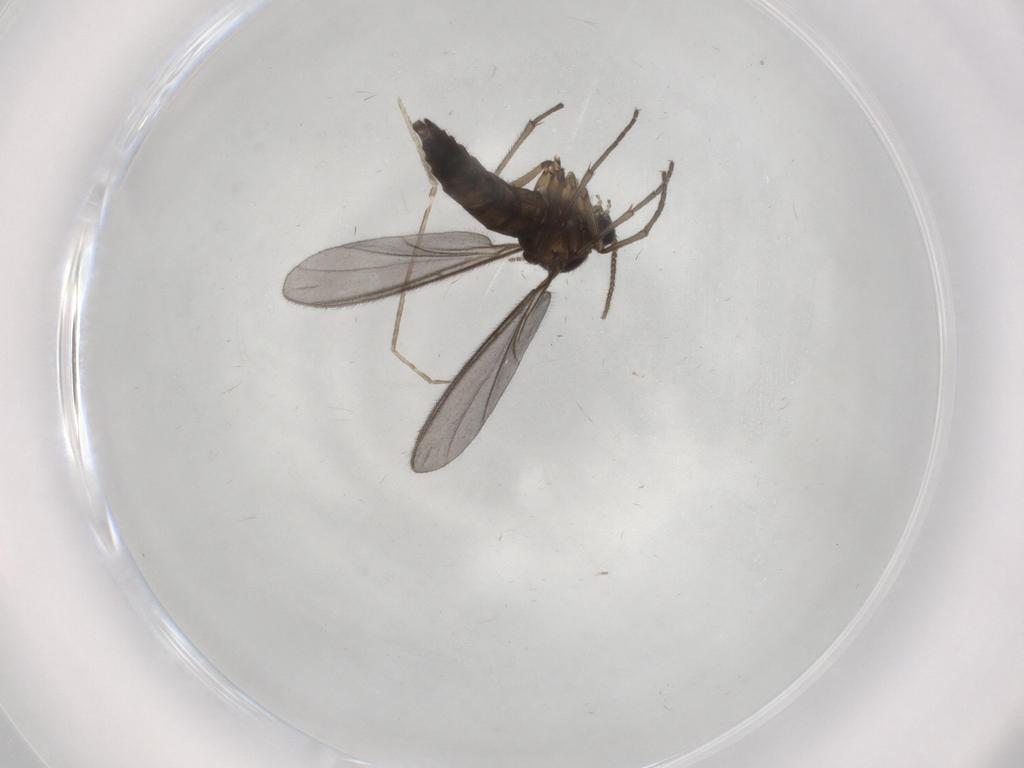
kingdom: Animalia
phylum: Arthropoda
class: Insecta
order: Diptera
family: Sciaridae
